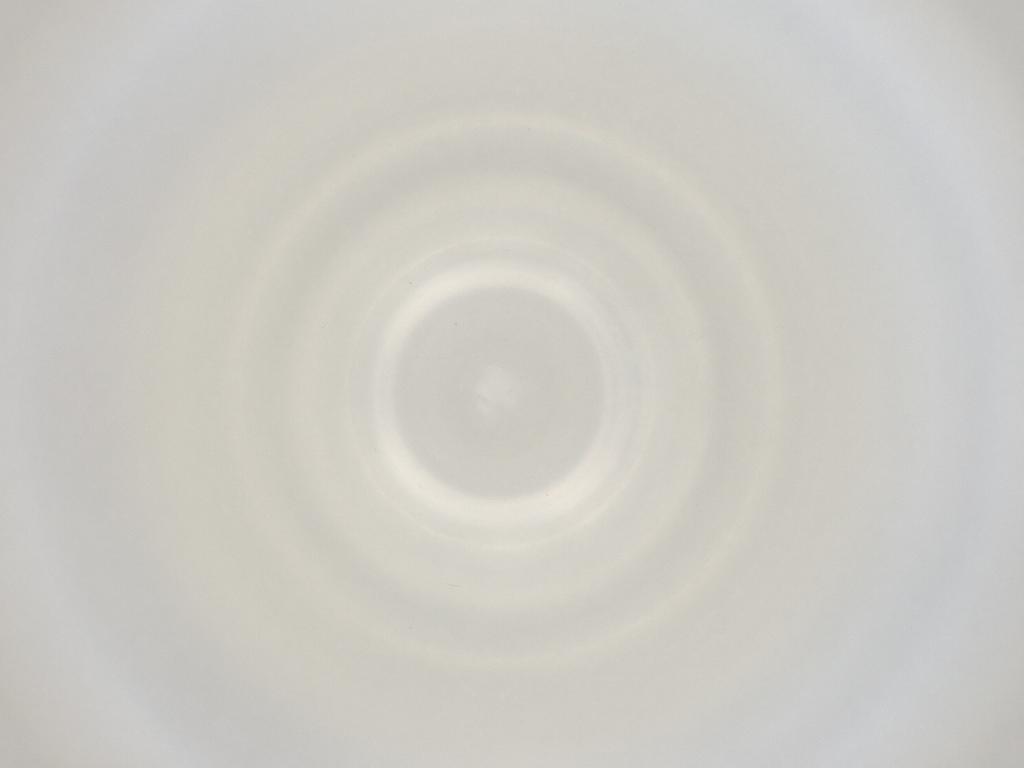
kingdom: Animalia
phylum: Arthropoda
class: Insecta
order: Diptera
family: Cecidomyiidae
